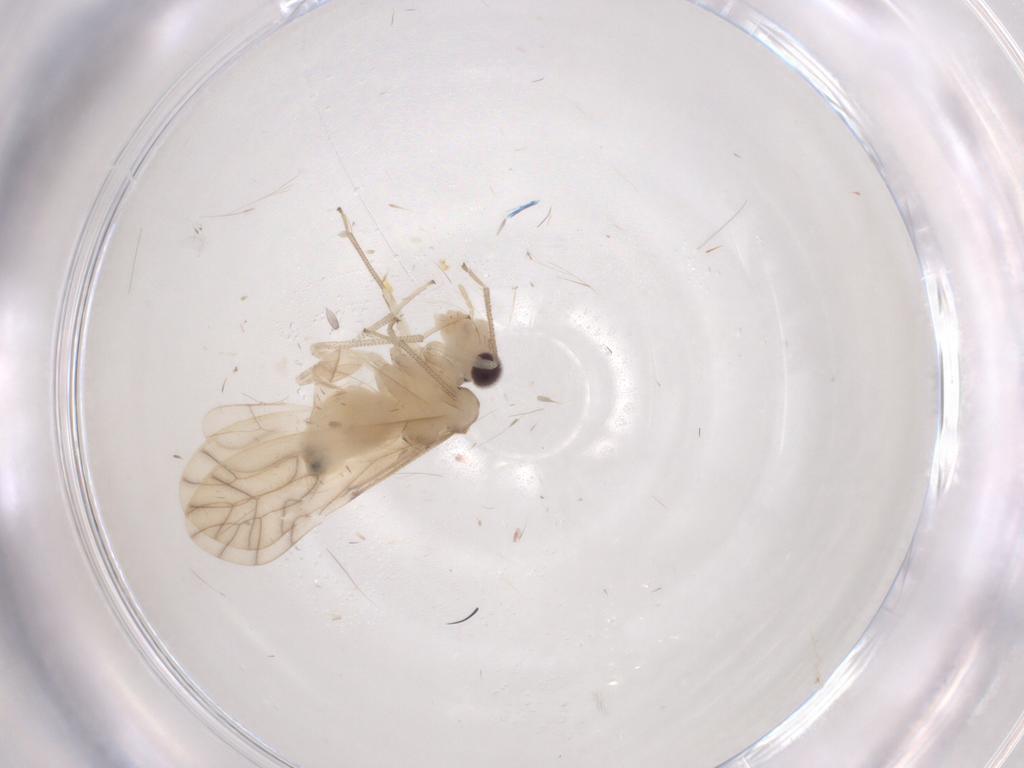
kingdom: Animalia
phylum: Arthropoda
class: Insecta
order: Psocodea
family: Caeciliusidae
